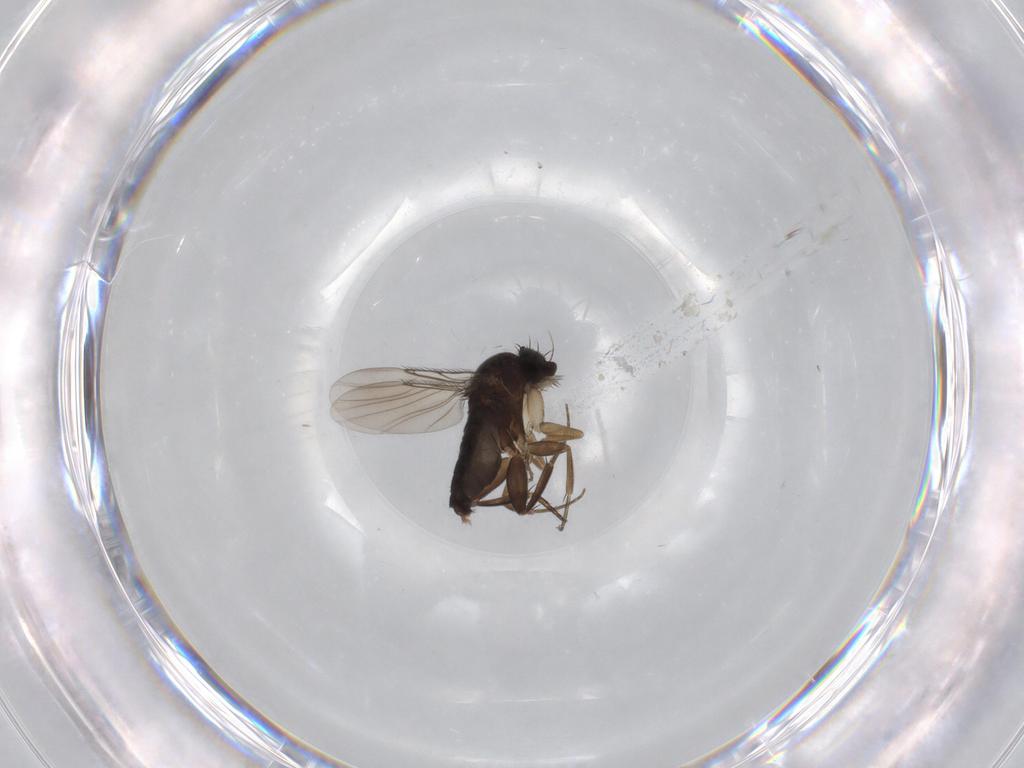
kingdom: Animalia
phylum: Arthropoda
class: Insecta
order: Diptera
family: Phoridae
